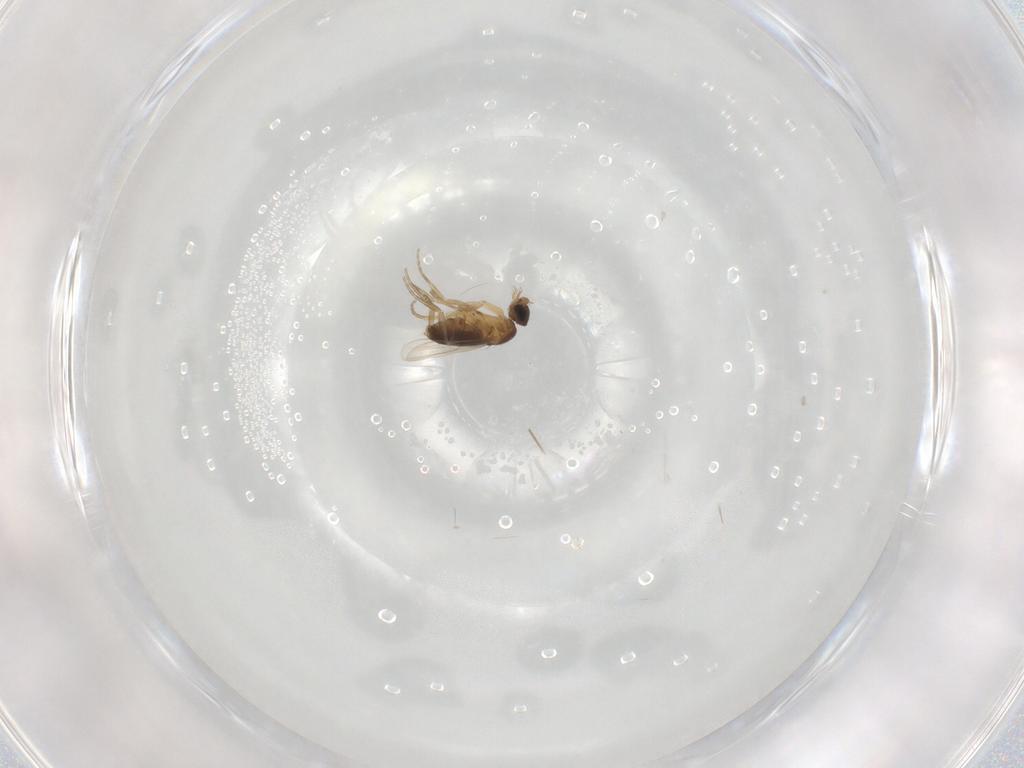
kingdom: Animalia
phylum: Arthropoda
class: Insecta
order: Diptera
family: Phoridae
